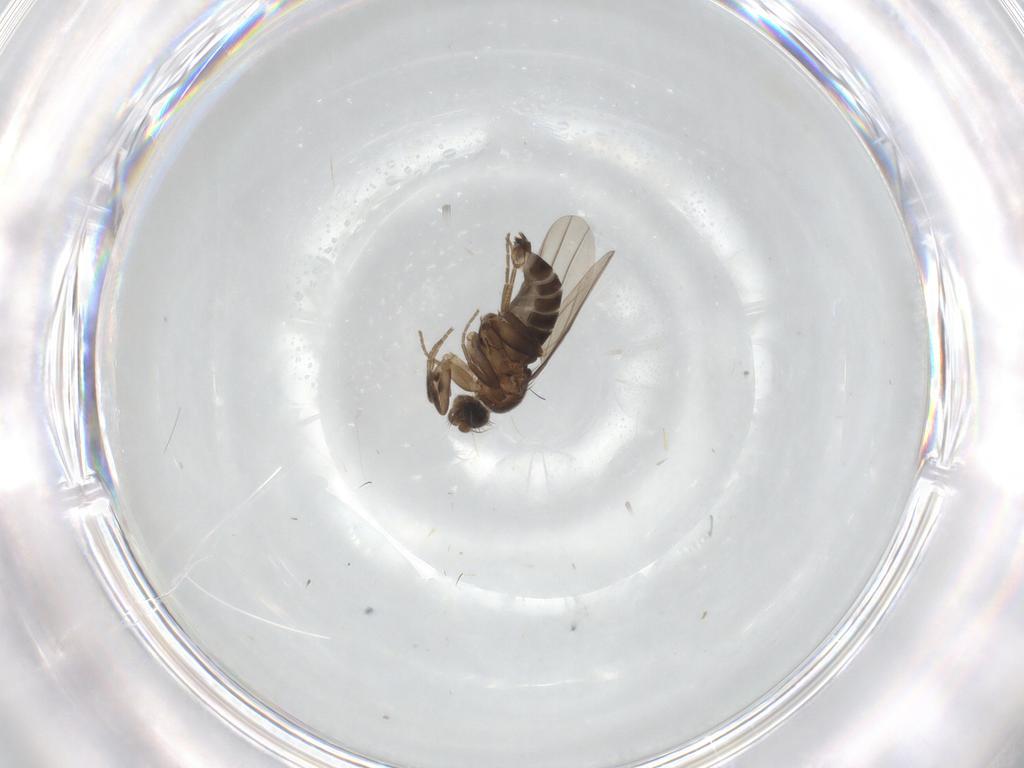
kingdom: Animalia
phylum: Arthropoda
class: Insecta
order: Diptera
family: Phoridae
